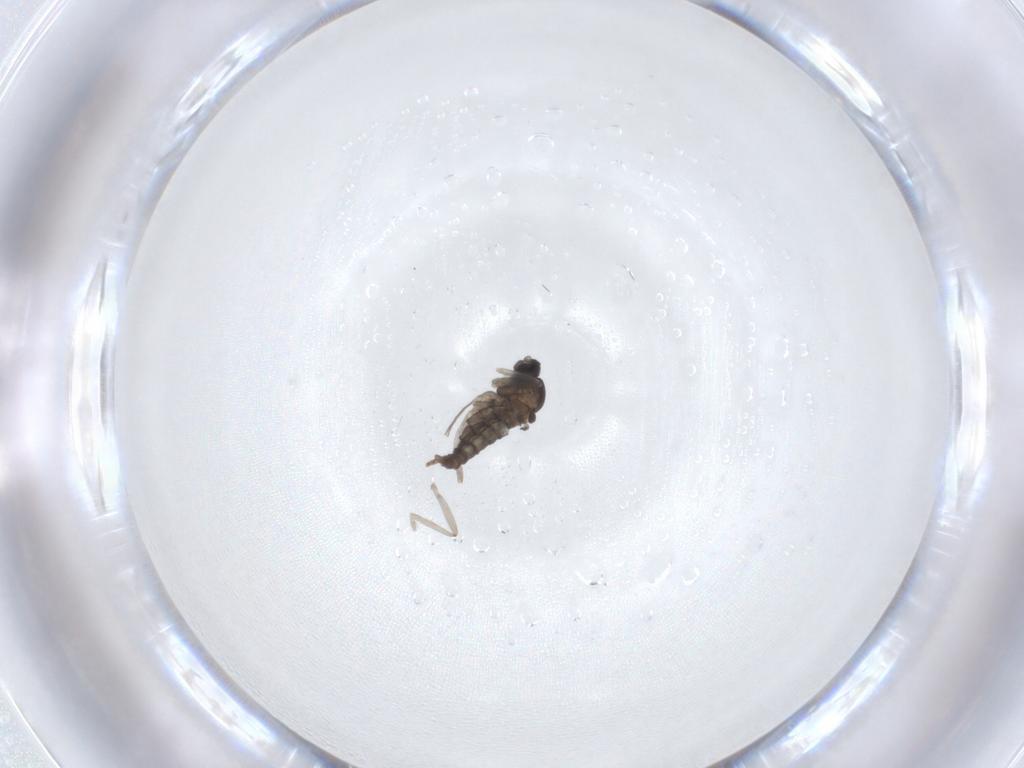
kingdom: Animalia
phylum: Arthropoda
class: Insecta
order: Diptera
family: Cecidomyiidae
